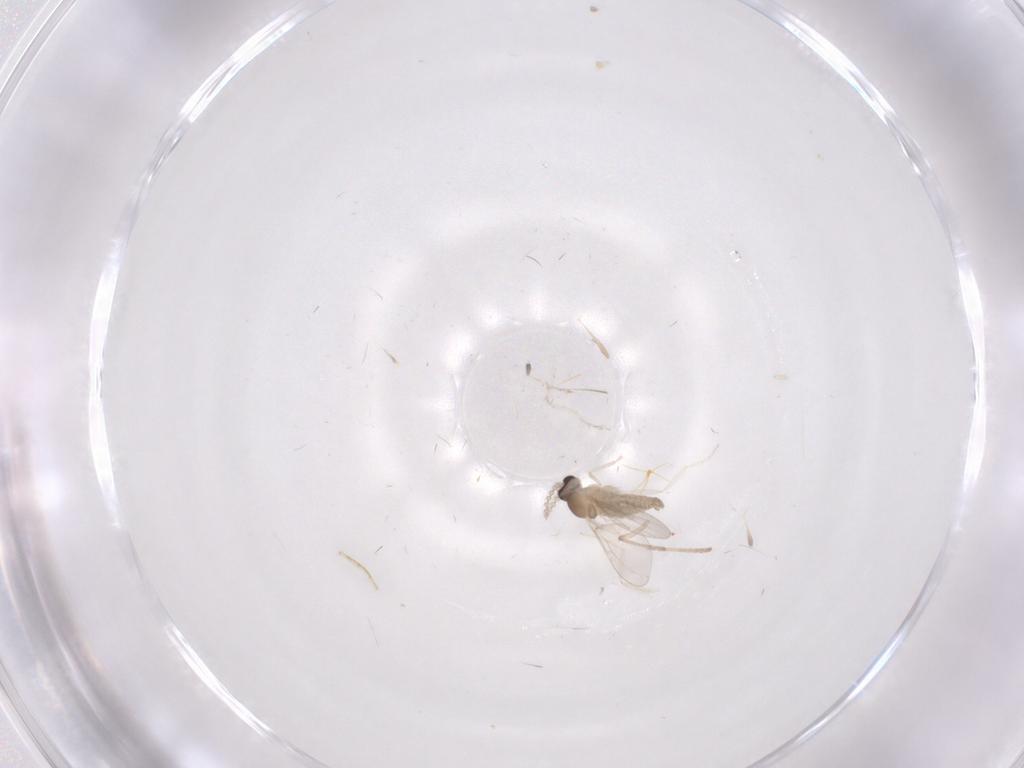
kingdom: Animalia
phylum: Arthropoda
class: Insecta
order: Diptera
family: Cecidomyiidae
